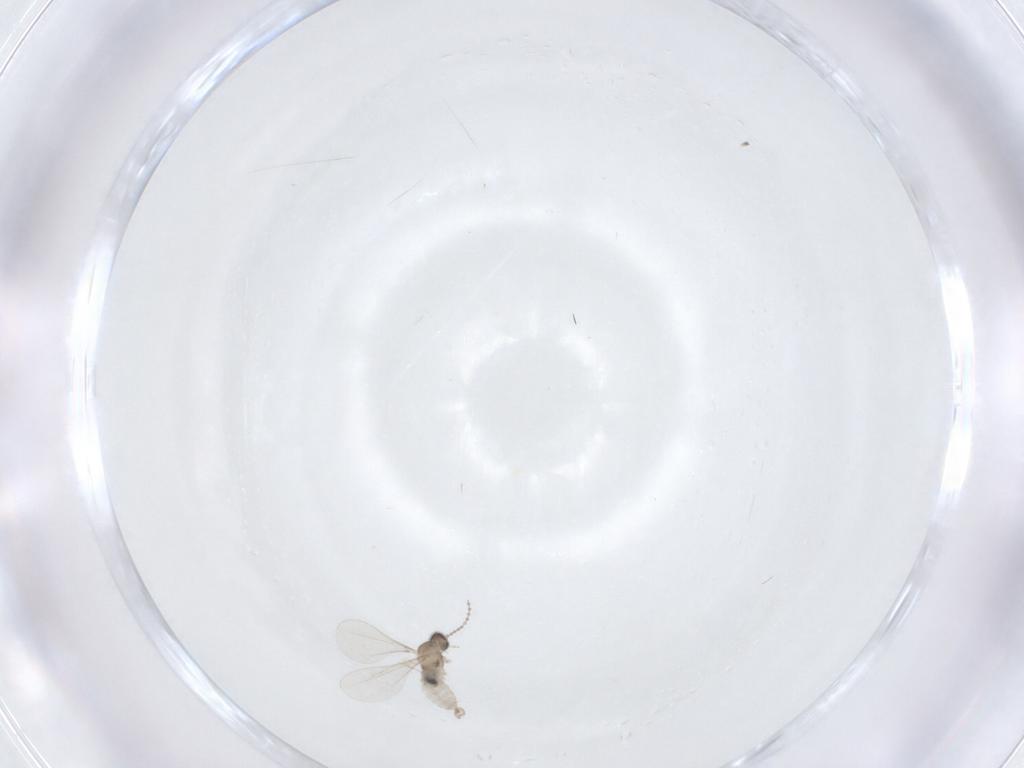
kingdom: Animalia
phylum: Arthropoda
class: Insecta
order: Diptera
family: Cecidomyiidae
